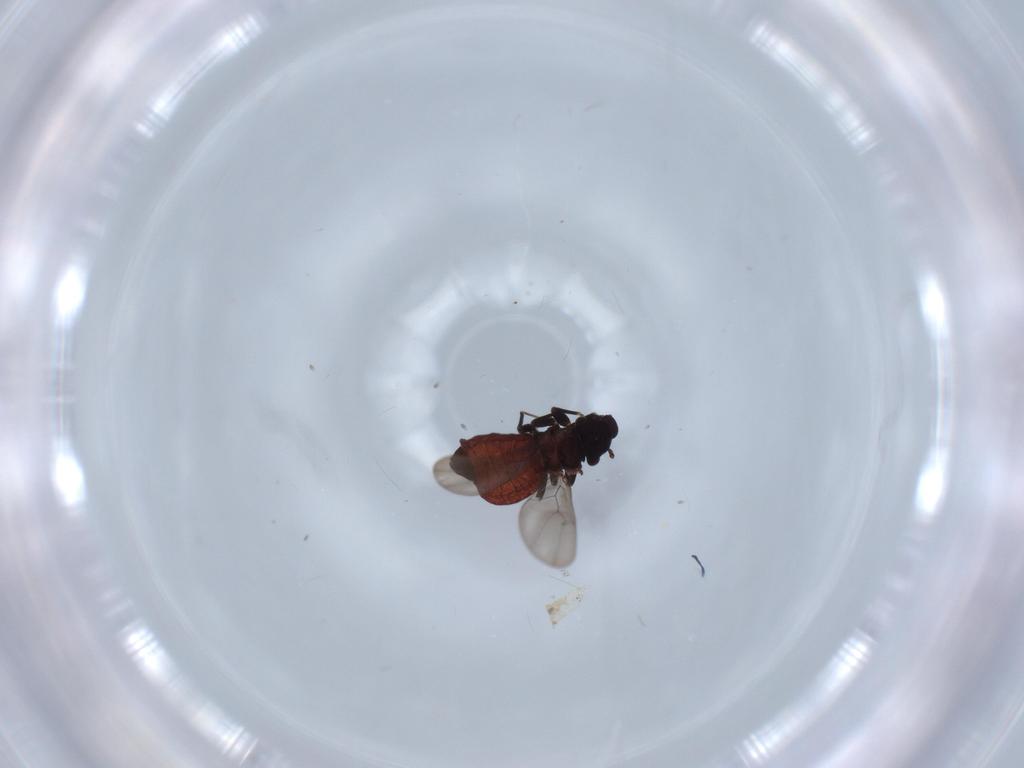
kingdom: Animalia
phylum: Arthropoda
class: Insecta
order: Psocodea
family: Lepidopsocidae
